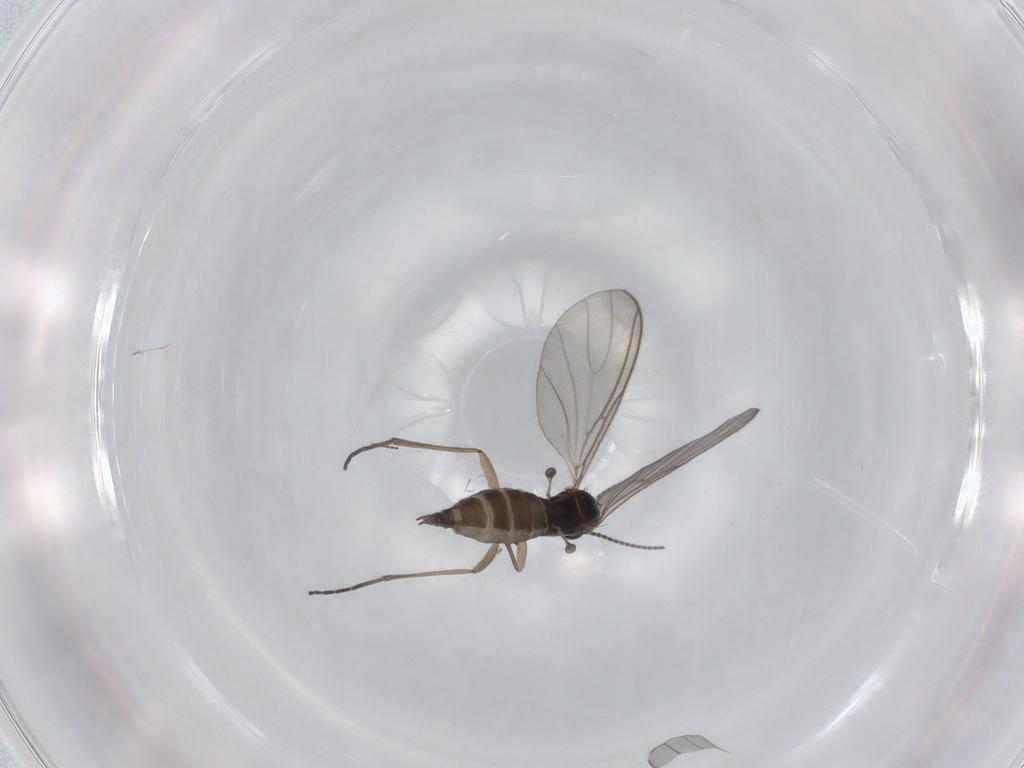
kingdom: Animalia
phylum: Arthropoda
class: Insecta
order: Diptera
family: Sciaridae
